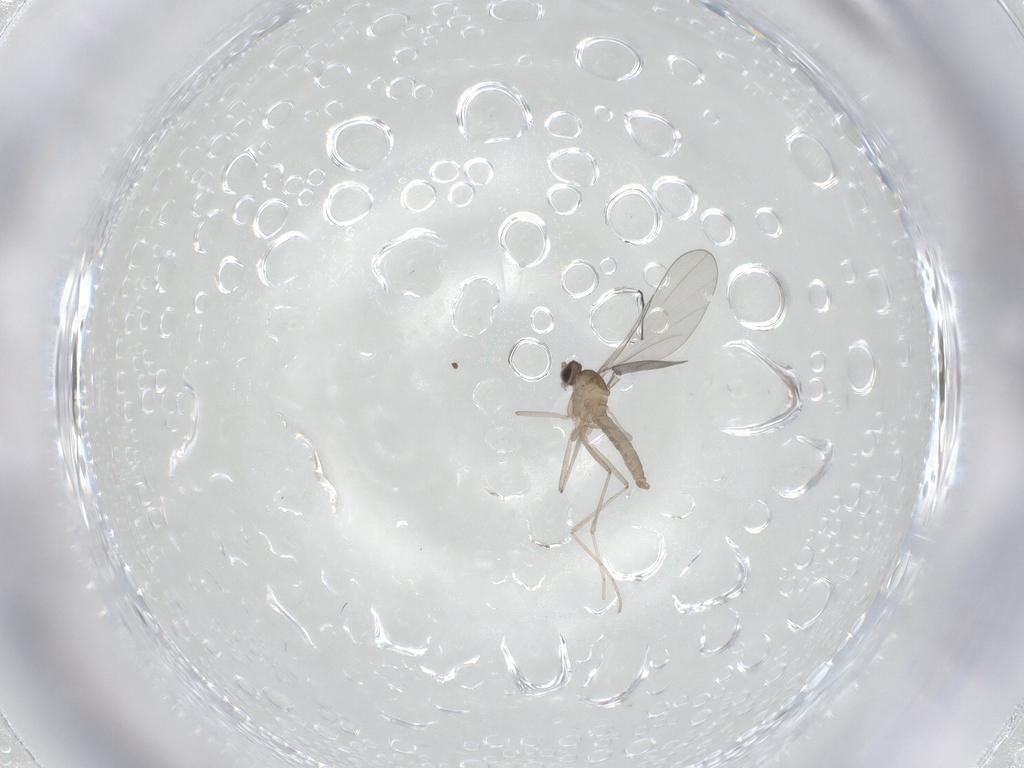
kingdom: Animalia
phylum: Arthropoda
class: Insecta
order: Diptera
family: Cecidomyiidae
